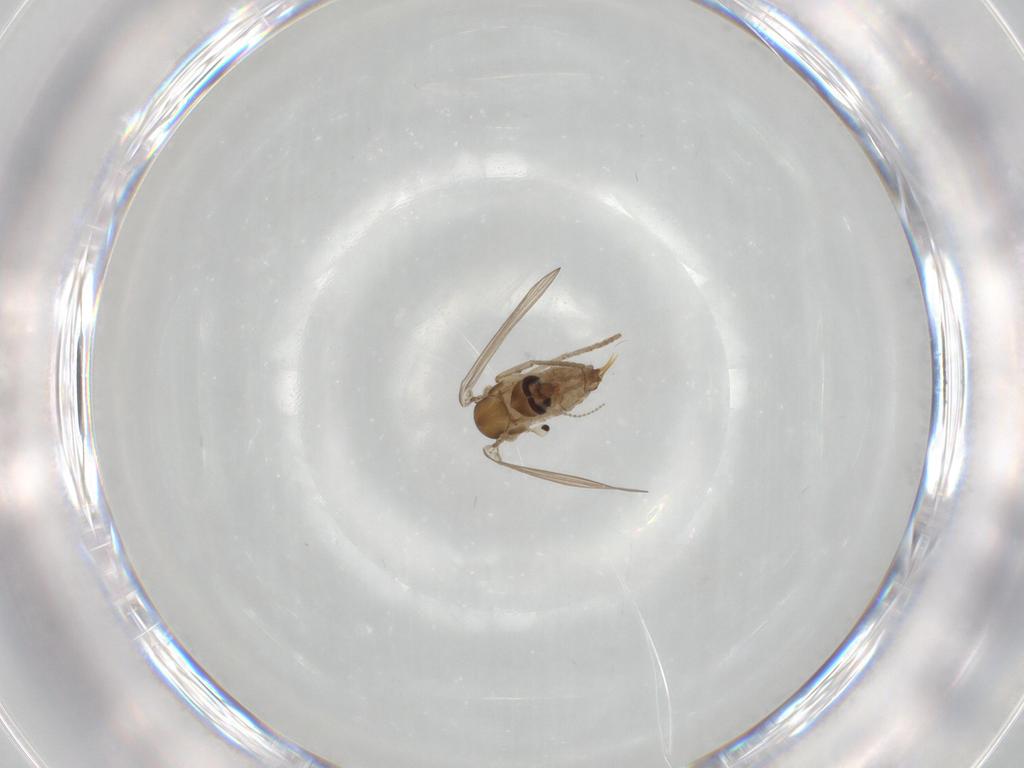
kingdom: Animalia
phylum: Arthropoda
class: Insecta
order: Diptera
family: Psychodidae
